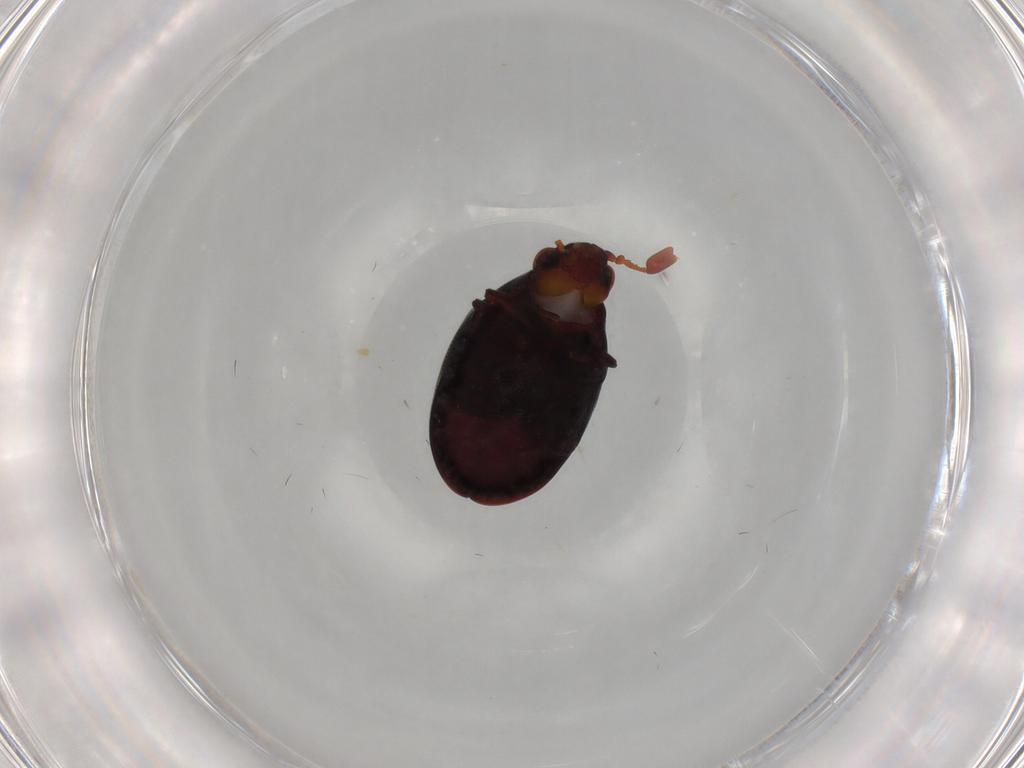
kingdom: Animalia
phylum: Arthropoda
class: Insecta
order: Coleoptera
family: Ptinidae
